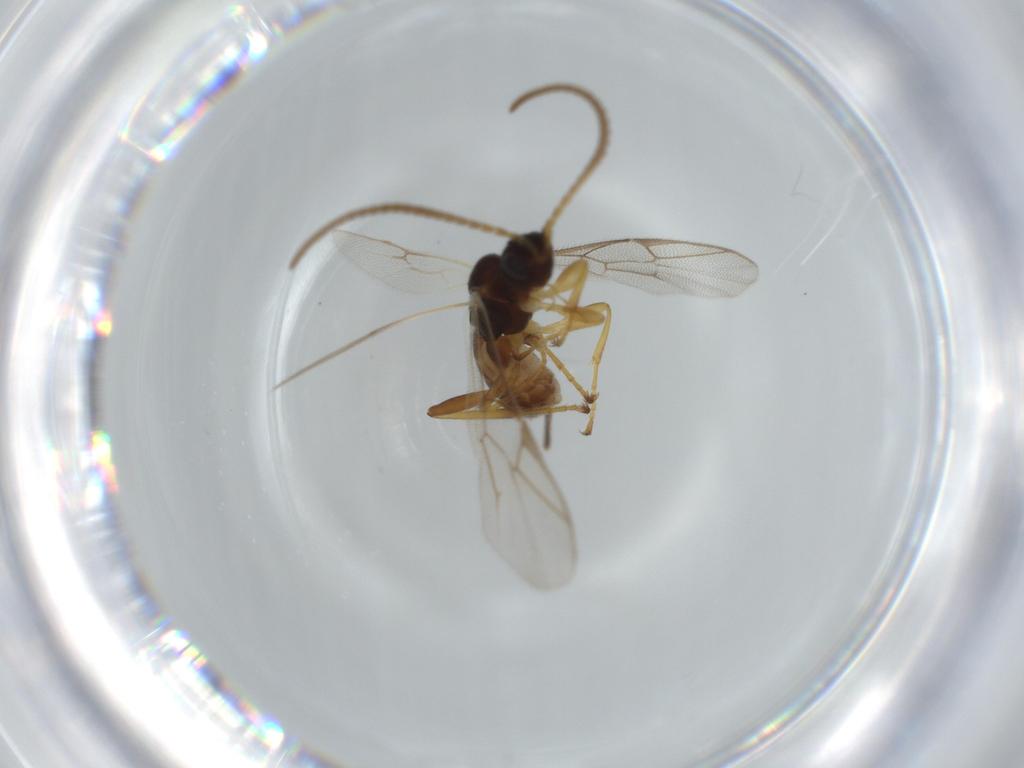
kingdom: Animalia
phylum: Arthropoda
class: Insecta
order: Hymenoptera
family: Ichneumonidae
